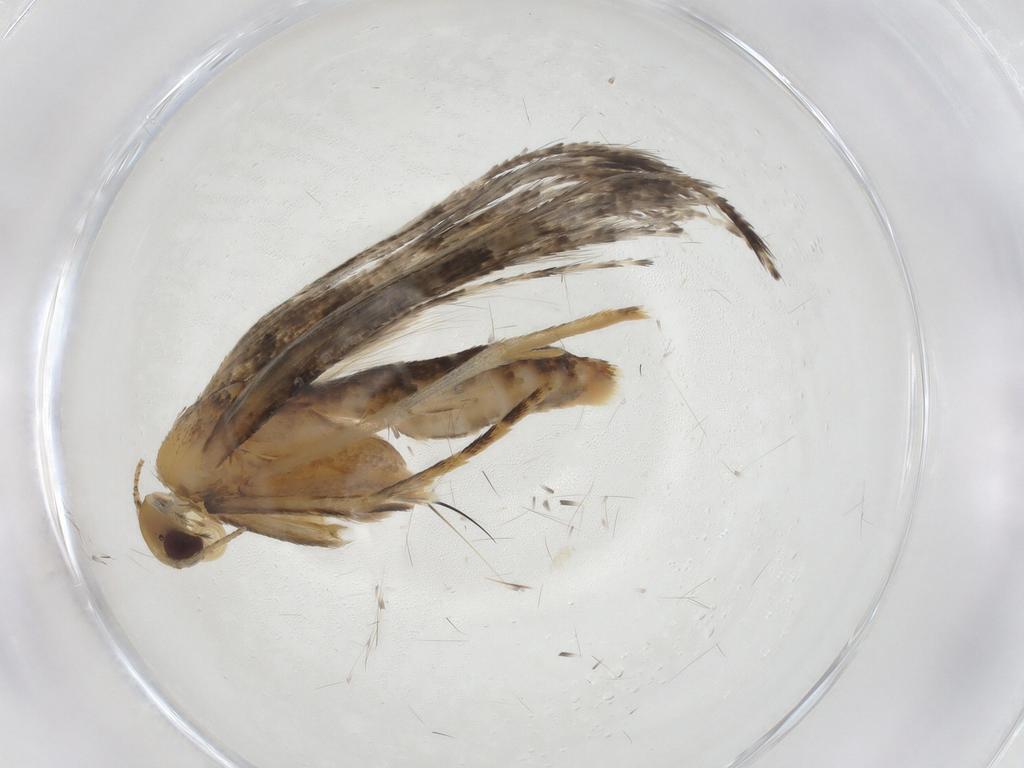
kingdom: Animalia
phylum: Arthropoda
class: Insecta
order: Lepidoptera
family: Alucitidae
